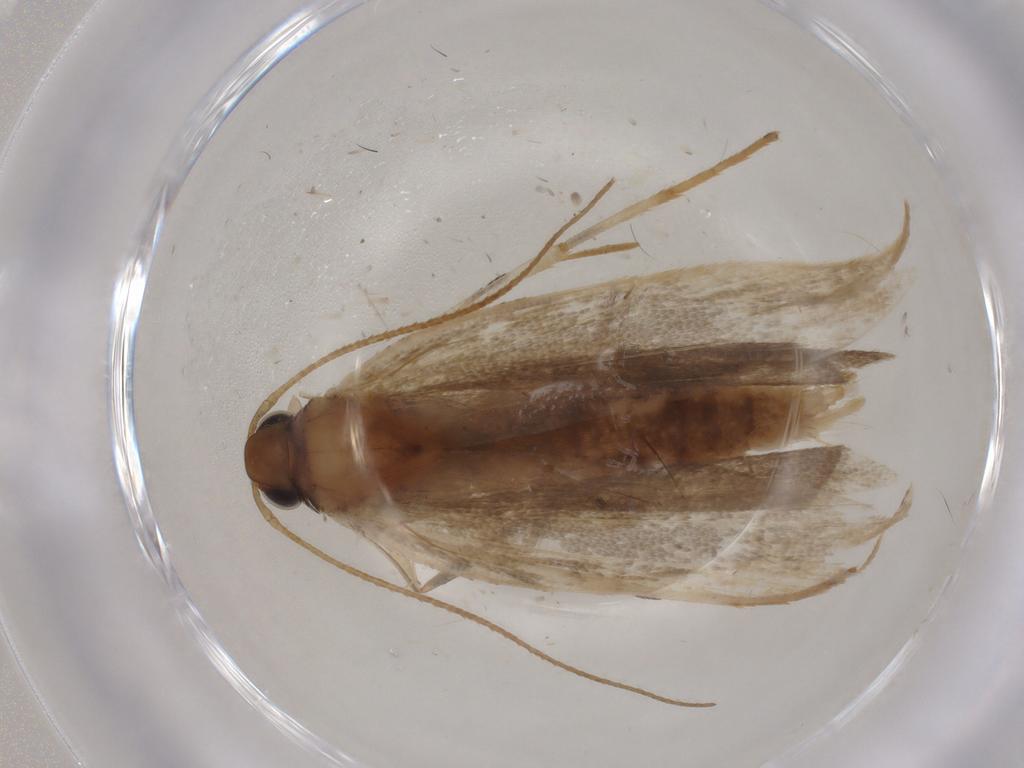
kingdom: Animalia
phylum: Arthropoda
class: Insecta
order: Lepidoptera
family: Gelechiidae
